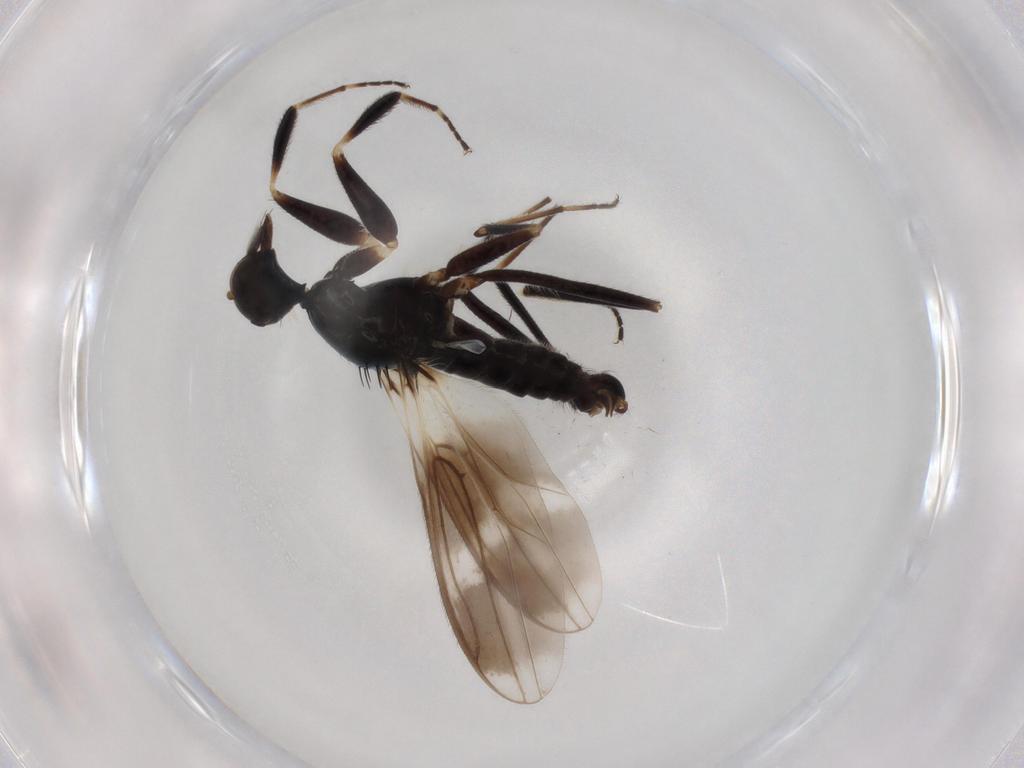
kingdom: Animalia
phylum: Arthropoda
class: Insecta
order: Diptera
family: Hybotidae
